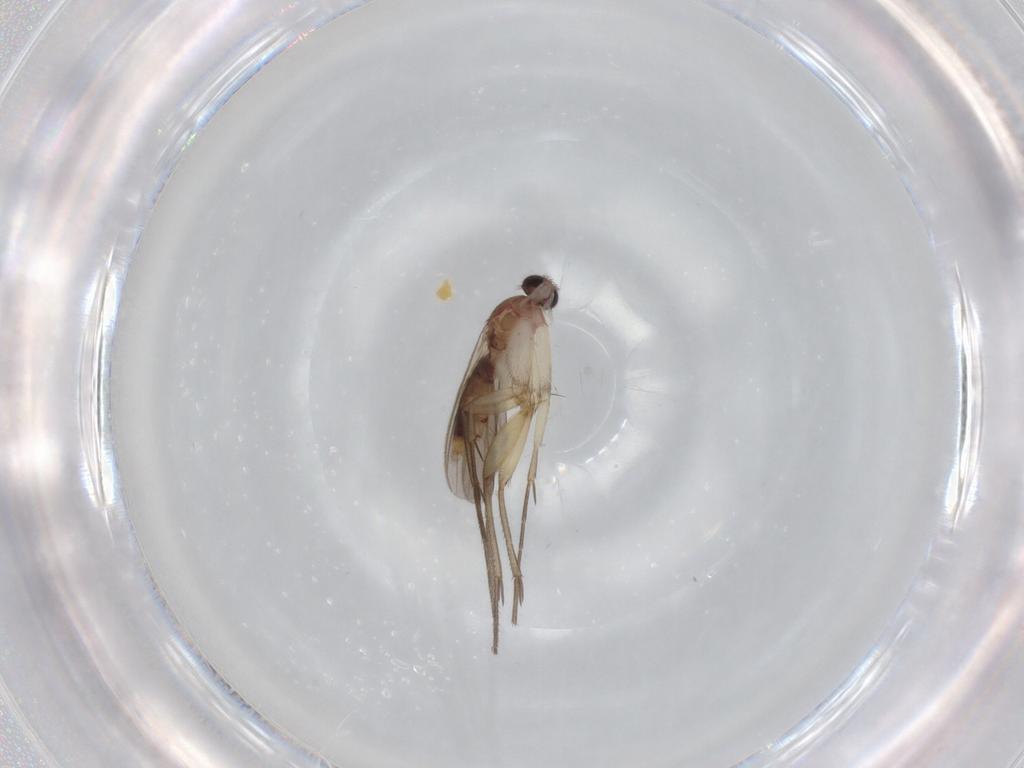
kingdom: Animalia
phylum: Arthropoda
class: Insecta
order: Diptera
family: Mycetophilidae
